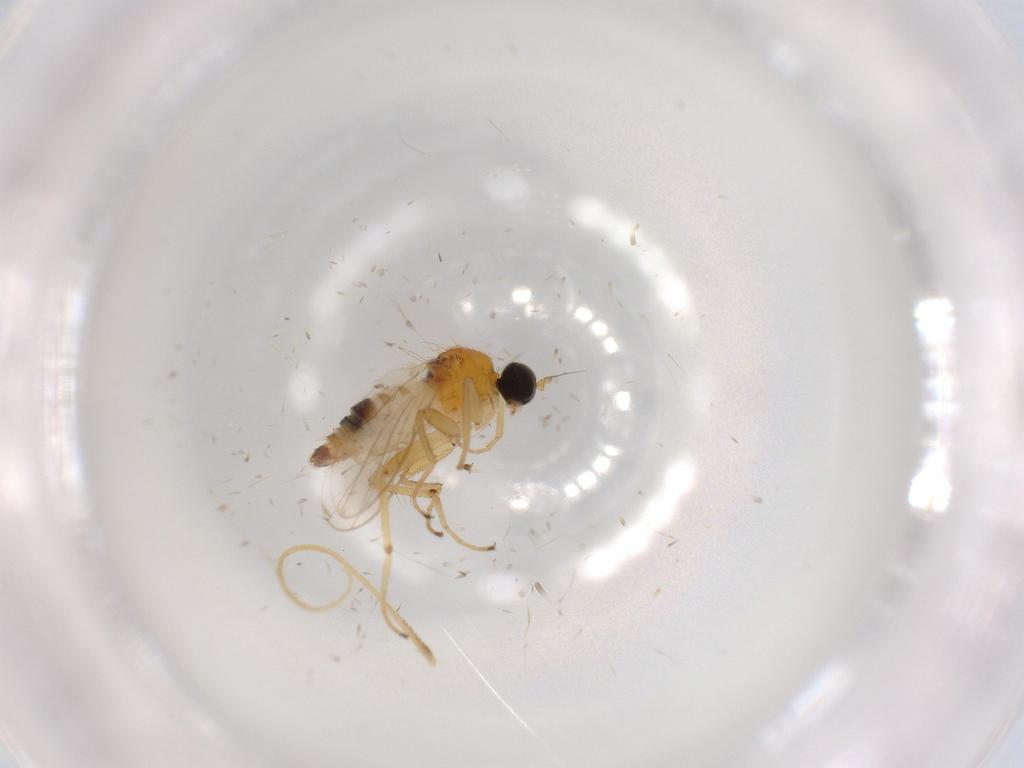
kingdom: Animalia
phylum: Arthropoda
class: Insecta
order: Diptera
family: Hybotidae
